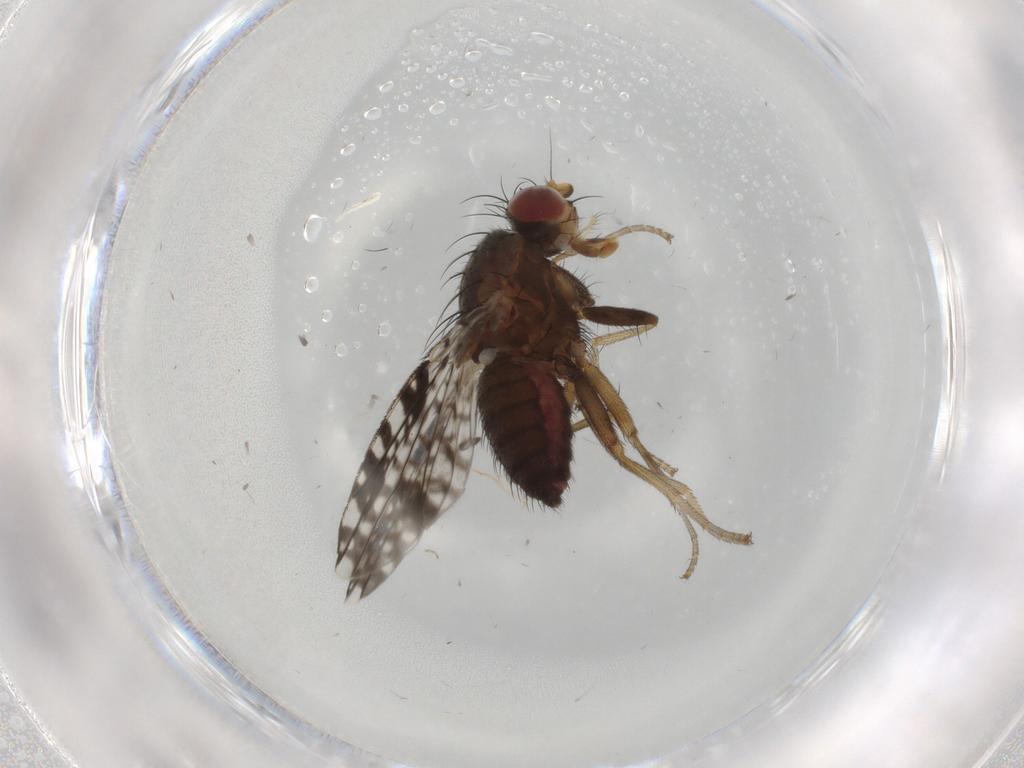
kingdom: Animalia
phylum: Arthropoda
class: Insecta
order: Diptera
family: Tephritidae
